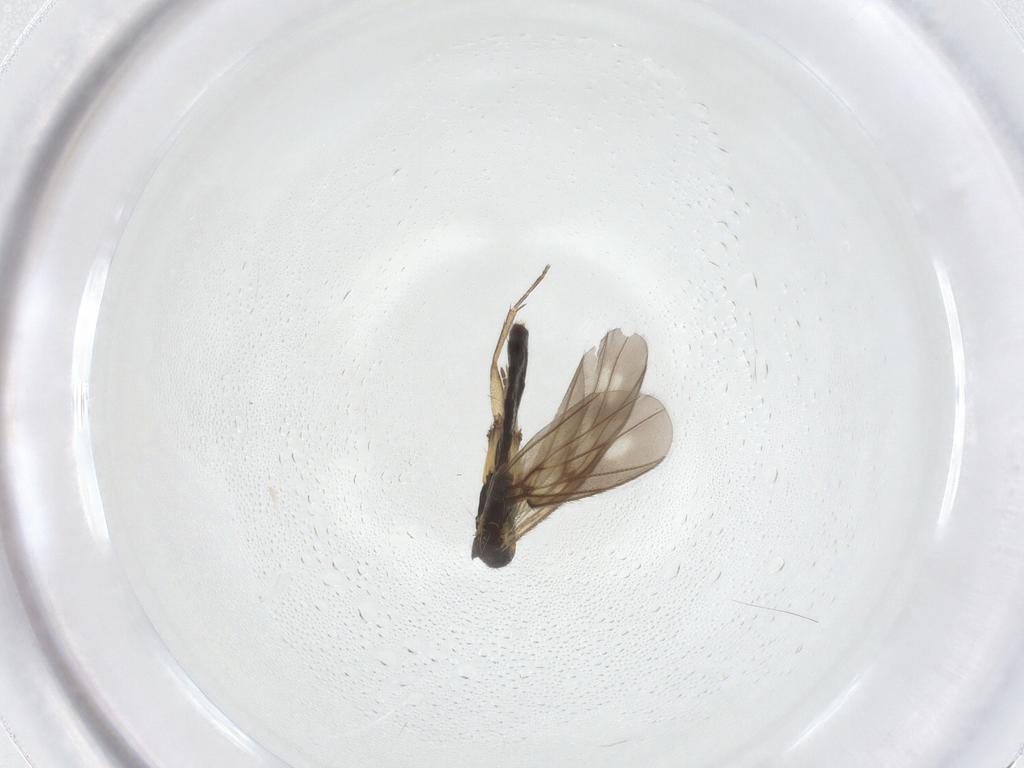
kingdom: Animalia
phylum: Arthropoda
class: Insecta
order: Diptera
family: Mycetophilidae
